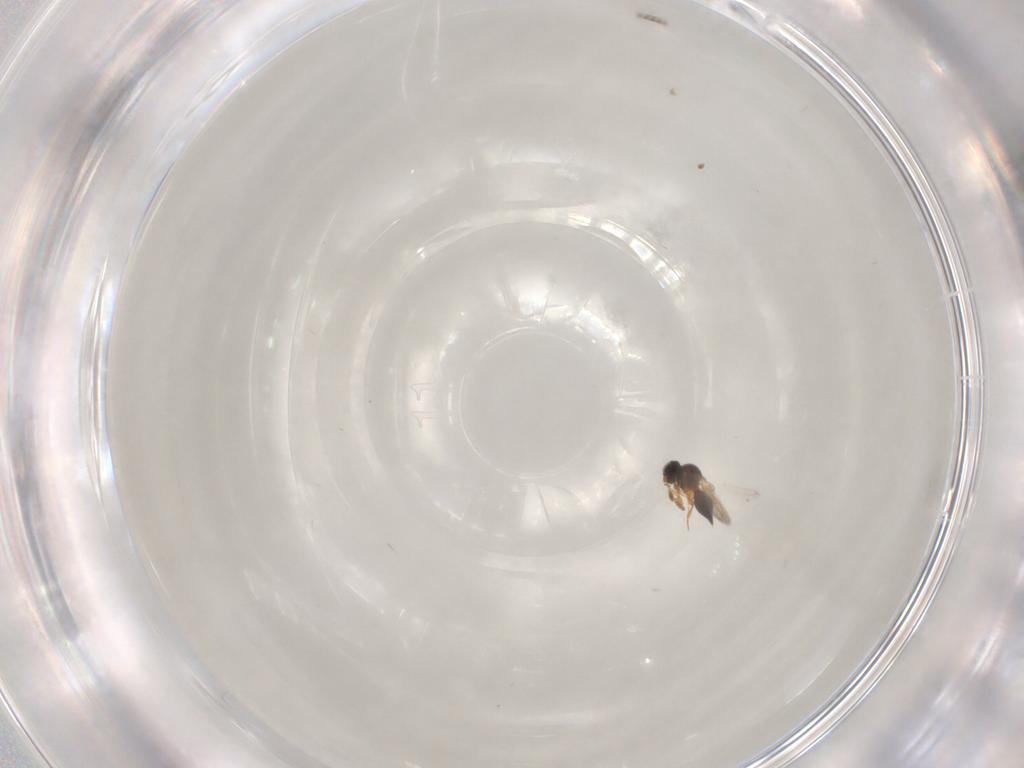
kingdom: Animalia
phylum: Arthropoda
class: Insecta
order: Hymenoptera
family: Platygastridae
